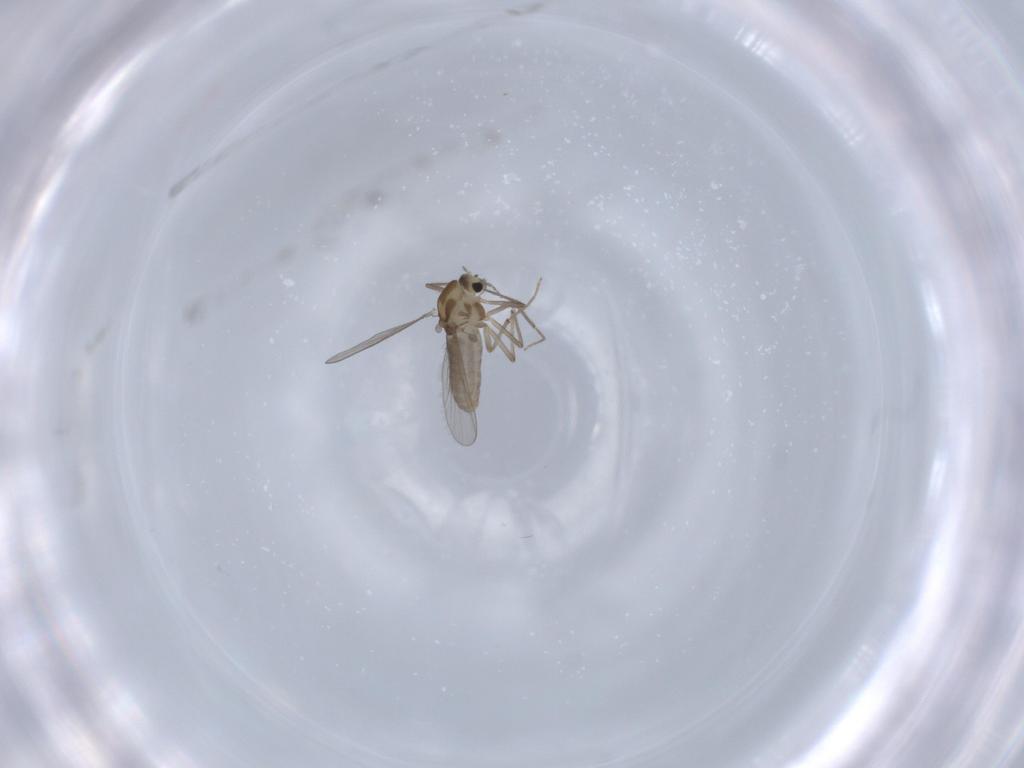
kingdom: Animalia
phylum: Arthropoda
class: Insecta
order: Diptera
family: Chironomidae
